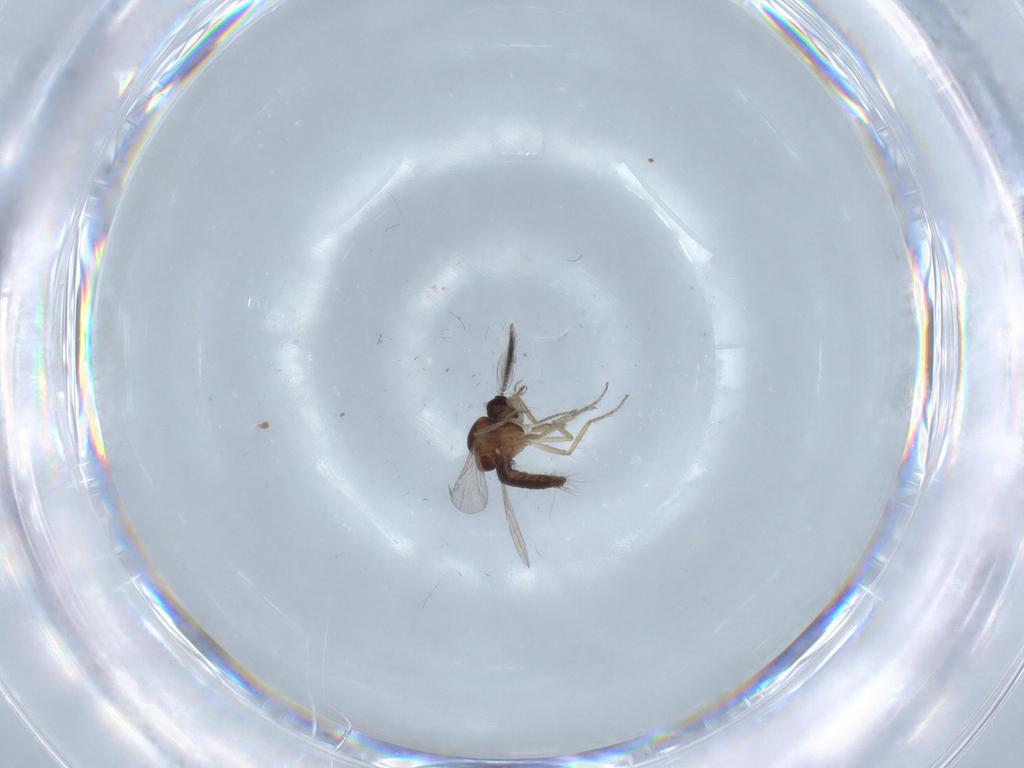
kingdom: Animalia
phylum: Arthropoda
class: Insecta
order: Diptera
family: Ceratopogonidae
